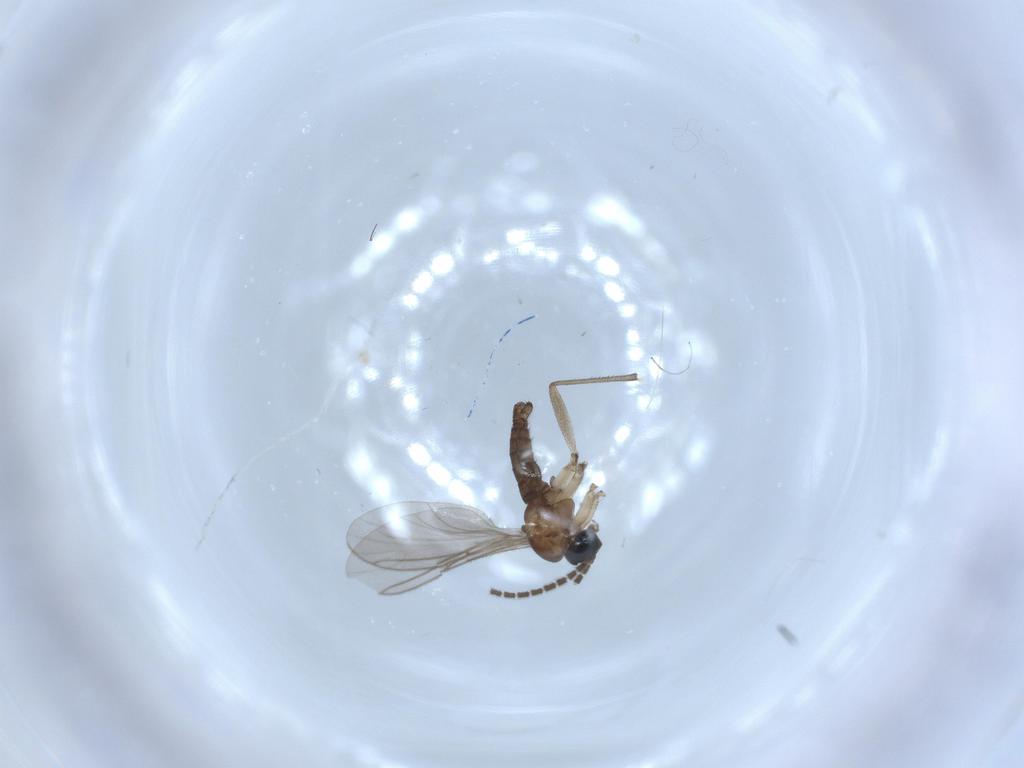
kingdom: Animalia
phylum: Arthropoda
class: Insecta
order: Diptera
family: Sciaridae
